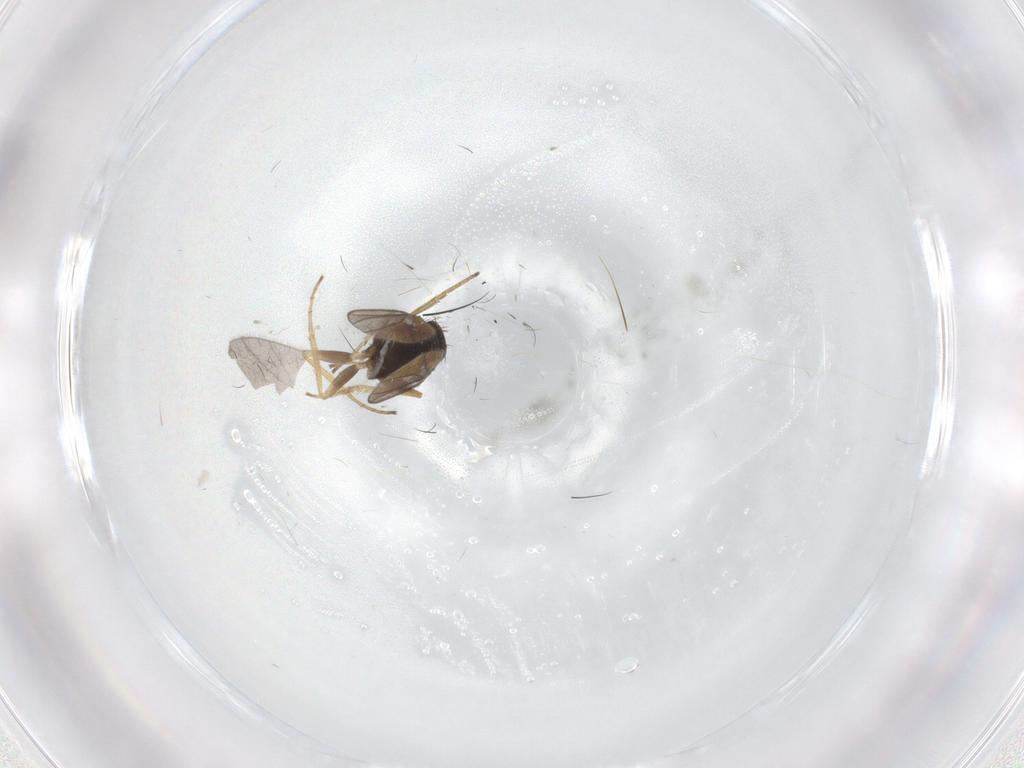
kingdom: Animalia
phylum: Arthropoda
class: Insecta
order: Diptera
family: Dolichopodidae
